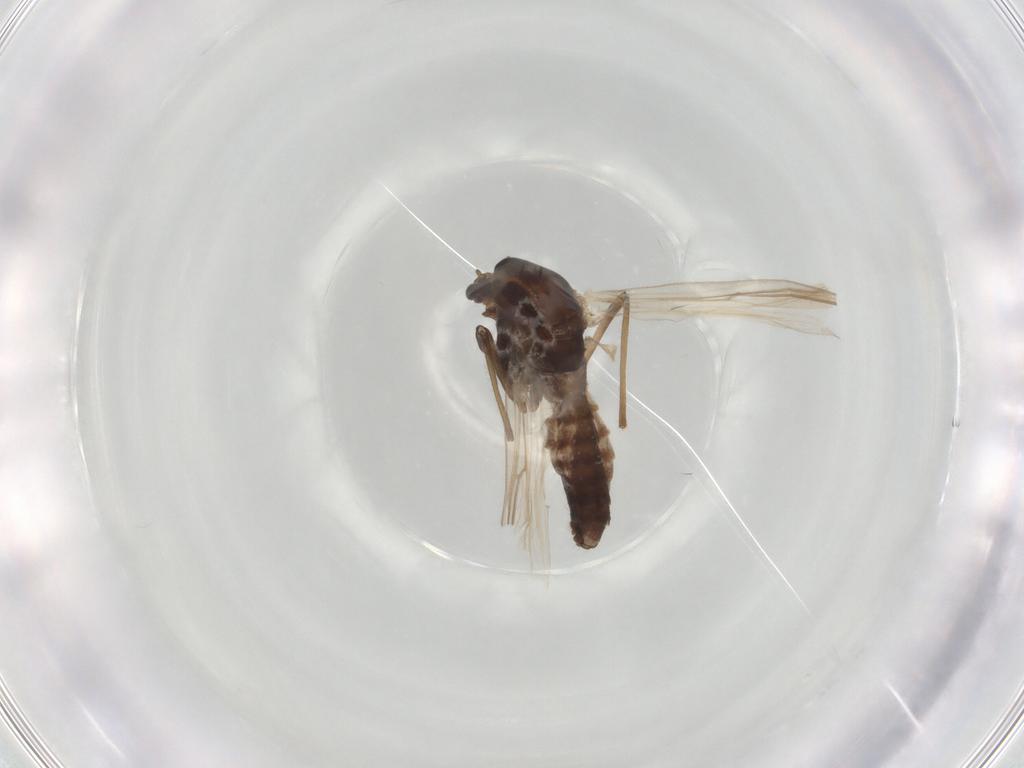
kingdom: Animalia
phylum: Arthropoda
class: Insecta
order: Diptera
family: Chironomidae
